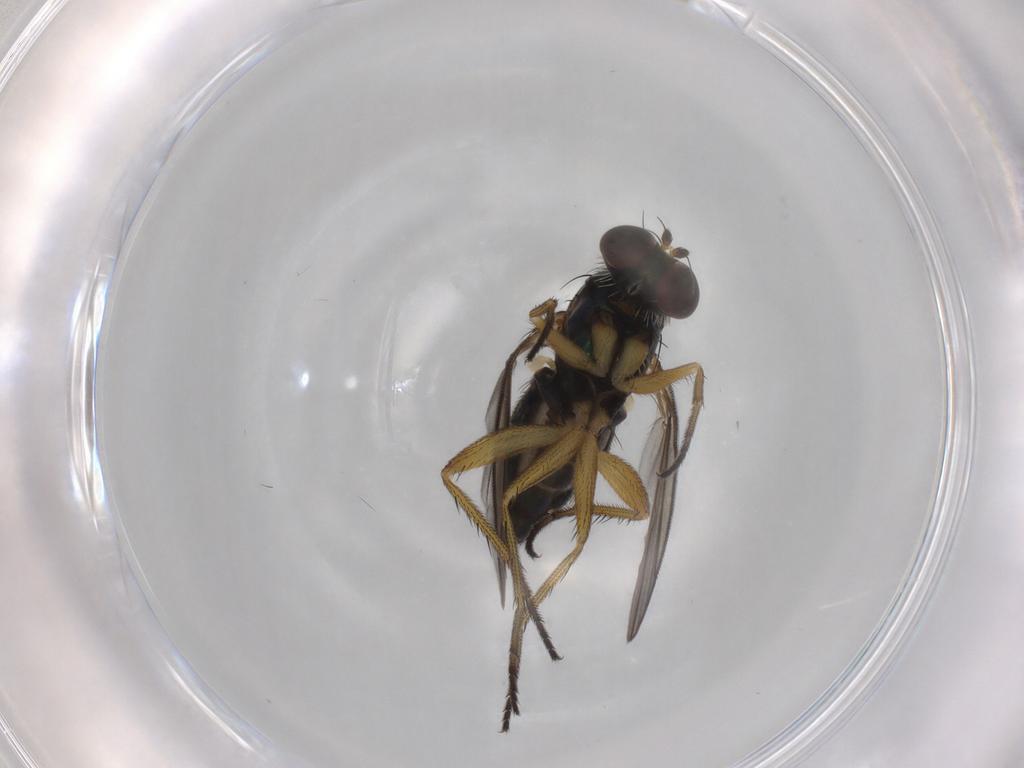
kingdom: Animalia
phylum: Arthropoda
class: Insecta
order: Diptera
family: Dolichopodidae
